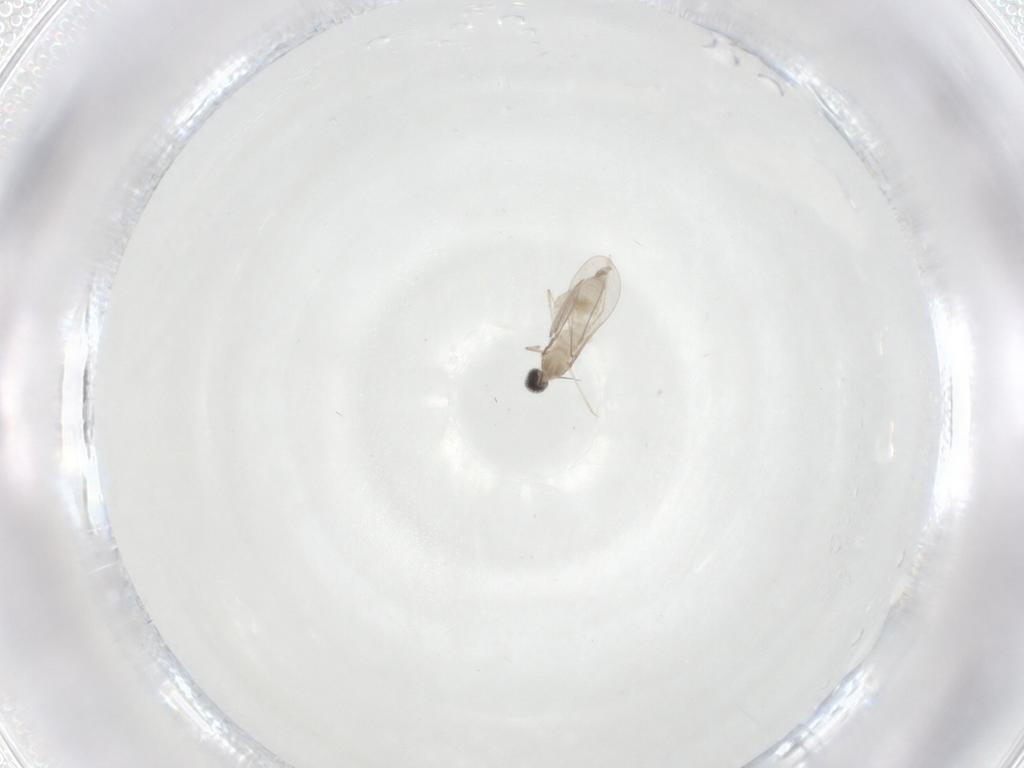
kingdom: Animalia
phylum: Arthropoda
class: Insecta
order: Diptera
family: Cecidomyiidae
